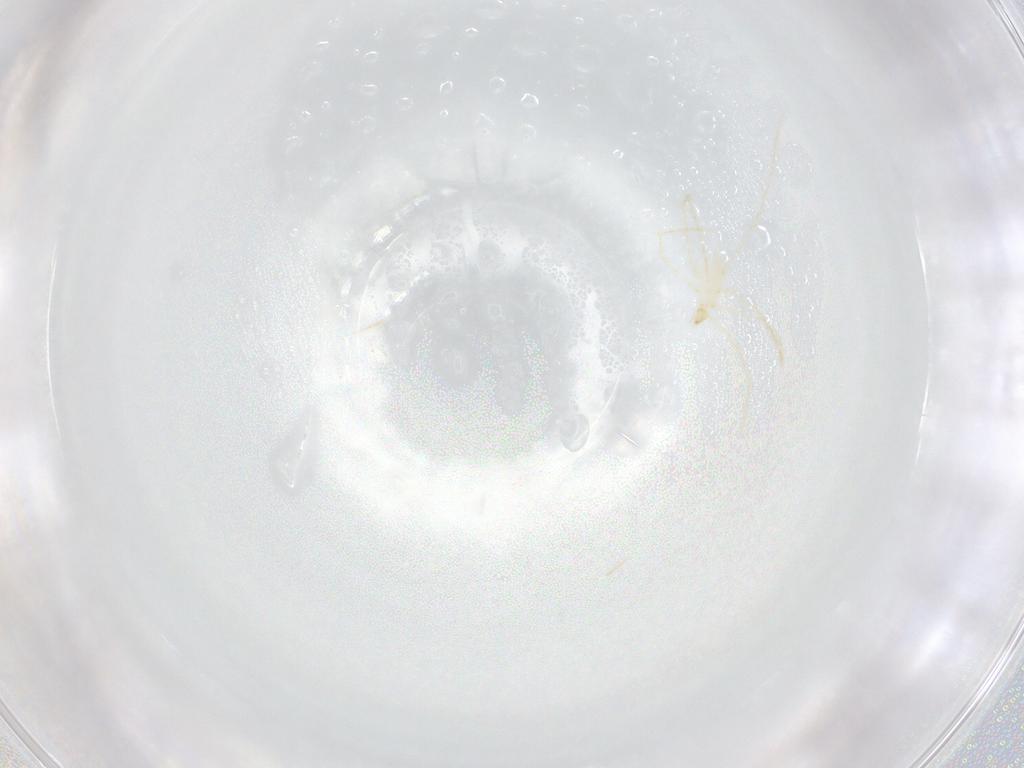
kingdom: Animalia
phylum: Arthropoda
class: Arachnida
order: Trombidiformes
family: Erythraeidae
